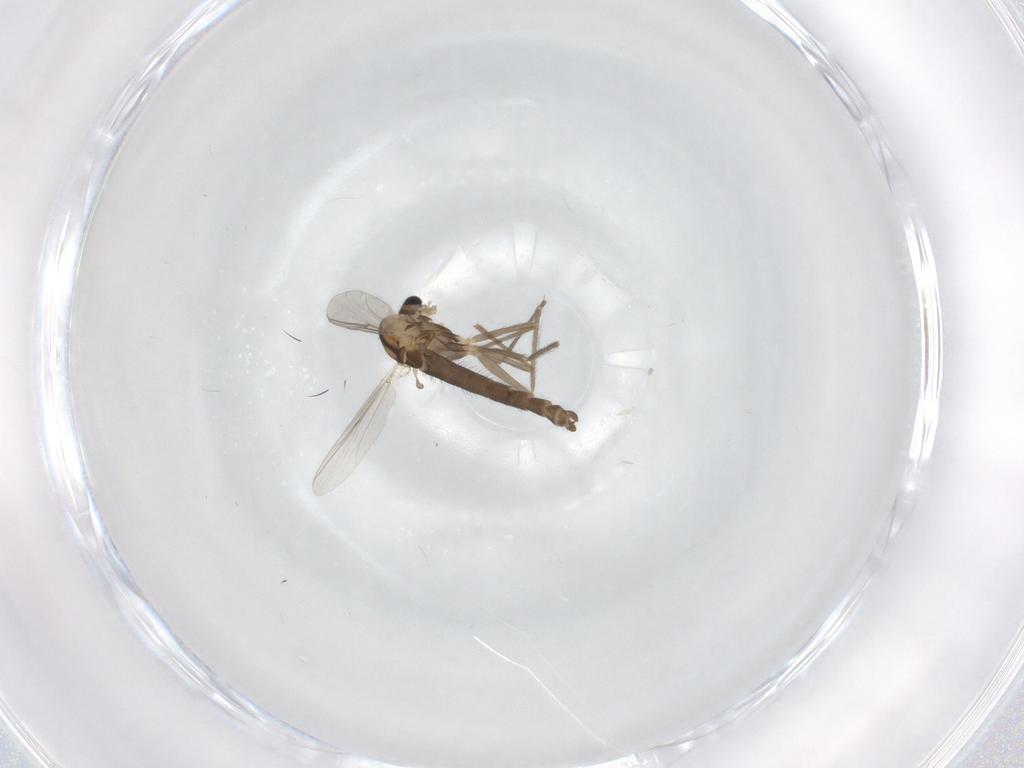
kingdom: Animalia
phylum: Arthropoda
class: Insecta
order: Diptera
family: Chironomidae
